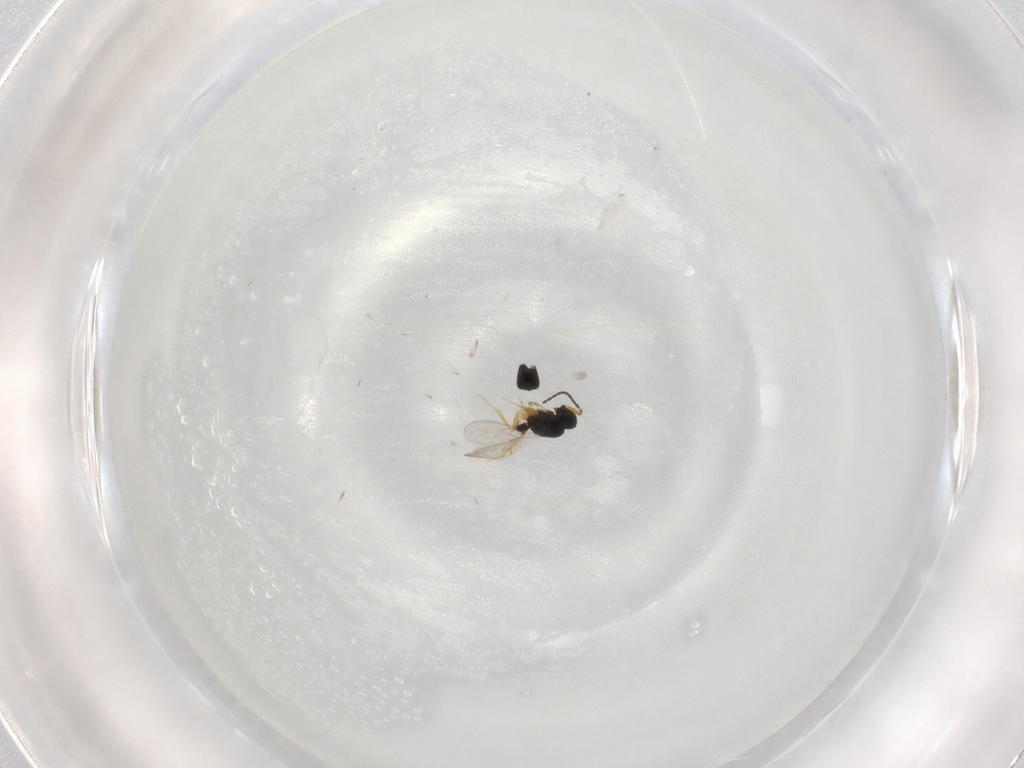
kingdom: Animalia
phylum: Arthropoda
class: Insecta
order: Hymenoptera
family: Scelionidae
